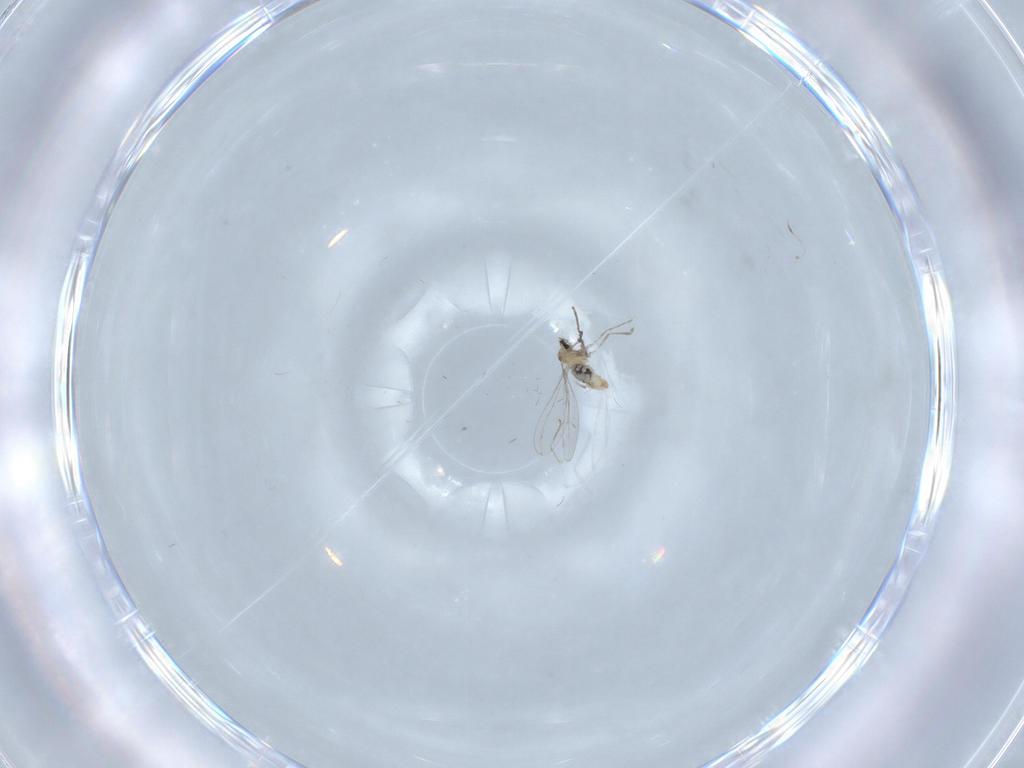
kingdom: Animalia
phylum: Arthropoda
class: Insecta
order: Diptera
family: Cecidomyiidae
